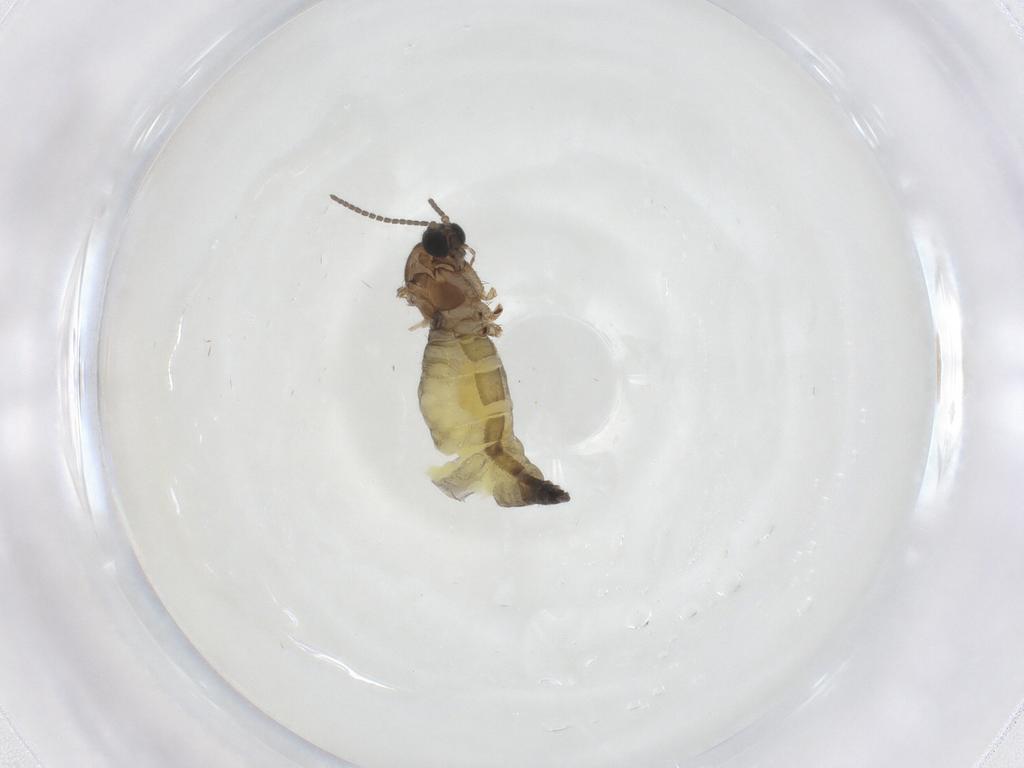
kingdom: Animalia
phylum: Arthropoda
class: Insecta
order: Diptera
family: Sciaridae
